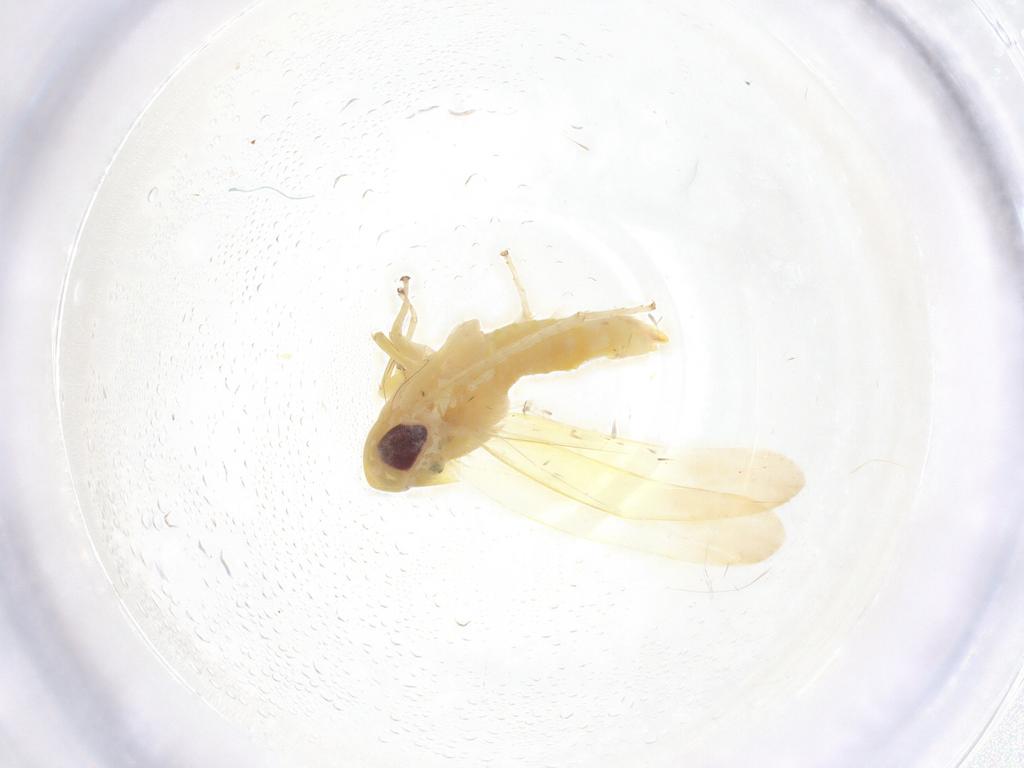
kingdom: Animalia
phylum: Arthropoda
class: Insecta
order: Hemiptera
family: Cicadellidae
